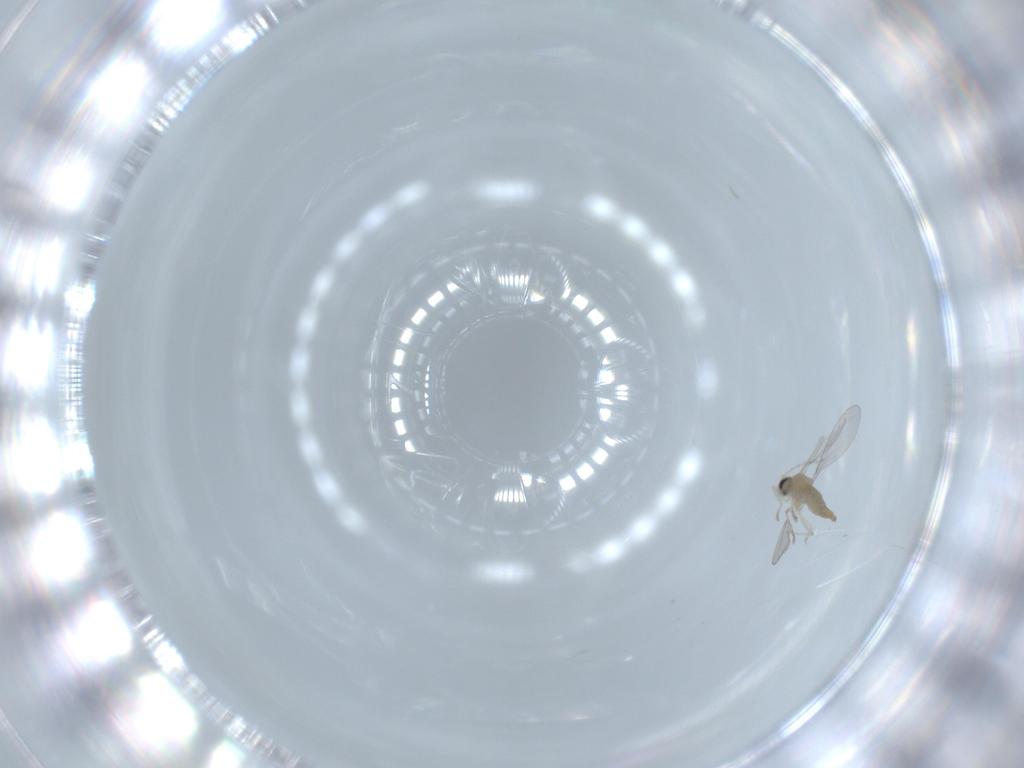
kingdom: Animalia
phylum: Arthropoda
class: Insecta
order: Diptera
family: Cecidomyiidae
